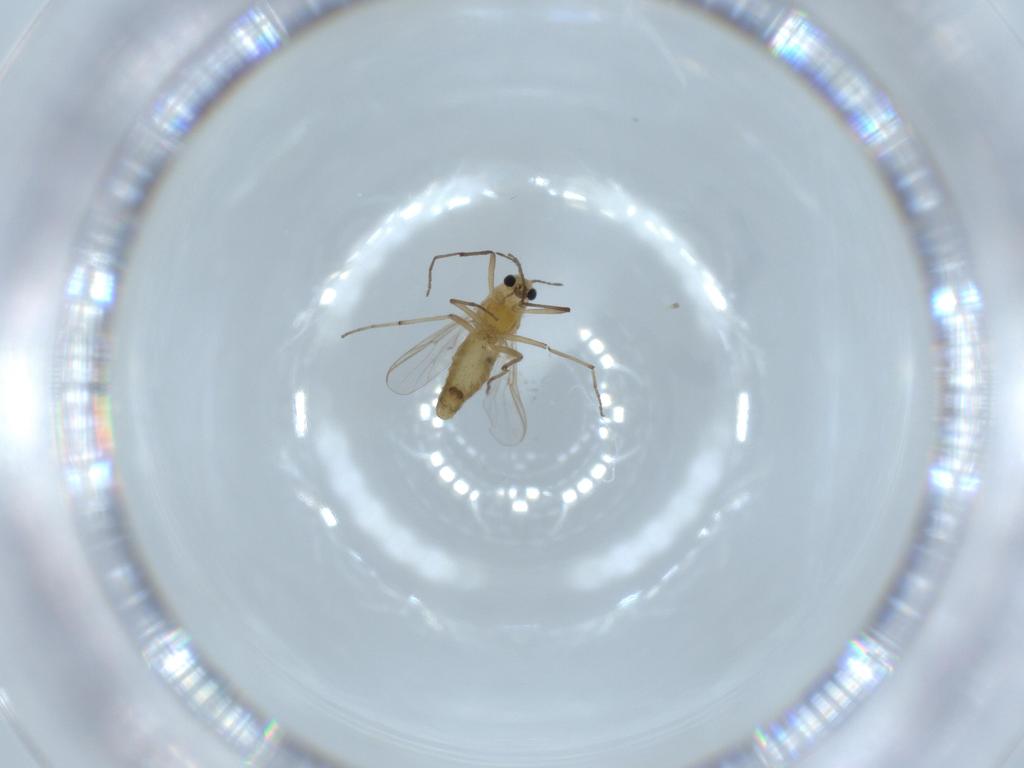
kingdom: Animalia
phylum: Arthropoda
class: Insecta
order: Diptera
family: Chironomidae
